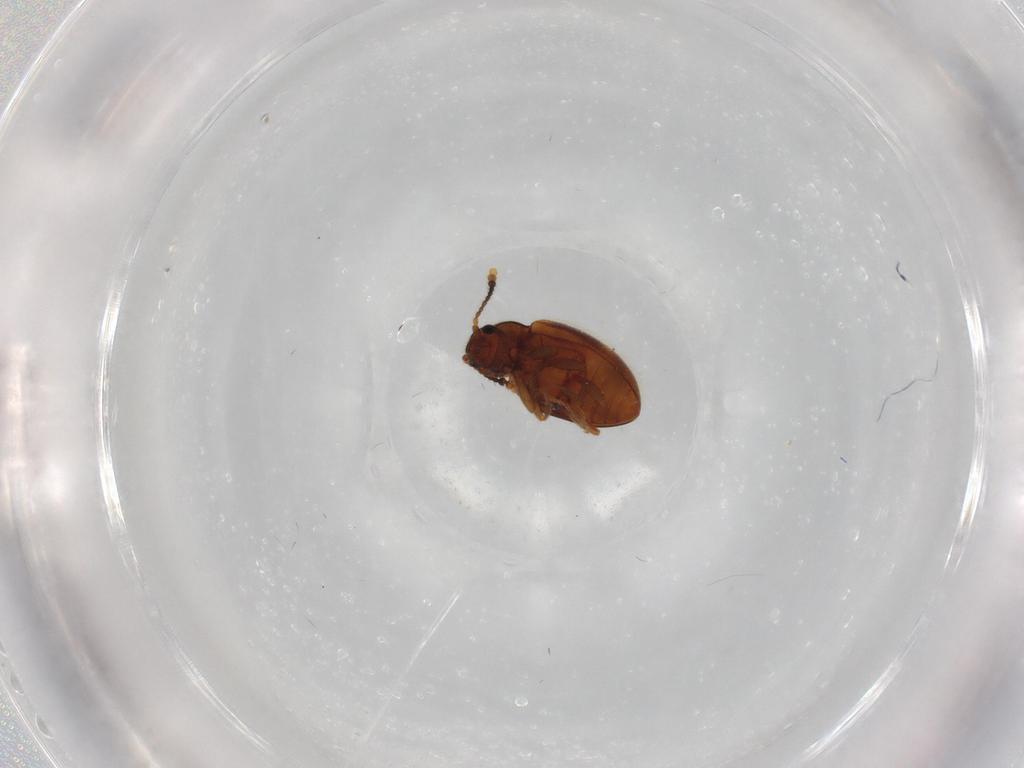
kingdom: Animalia
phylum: Arthropoda
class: Insecta
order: Coleoptera
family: Erotylidae
